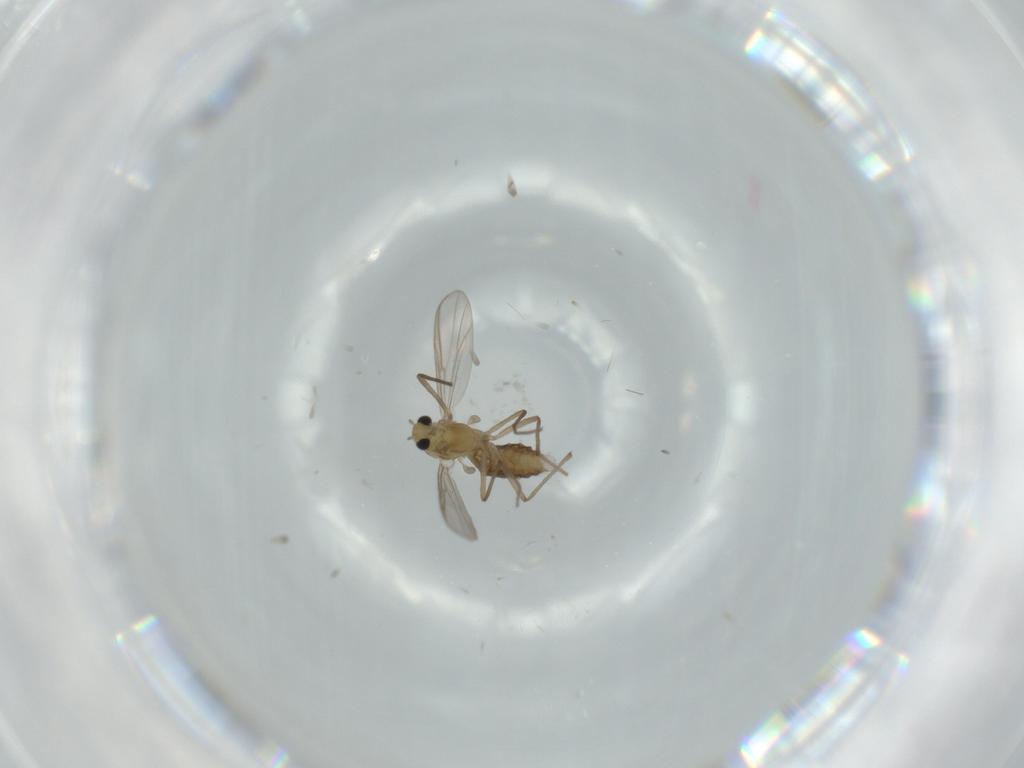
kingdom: Animalia
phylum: Arthropoda
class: Insecta
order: Diptera
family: Chironomidae
